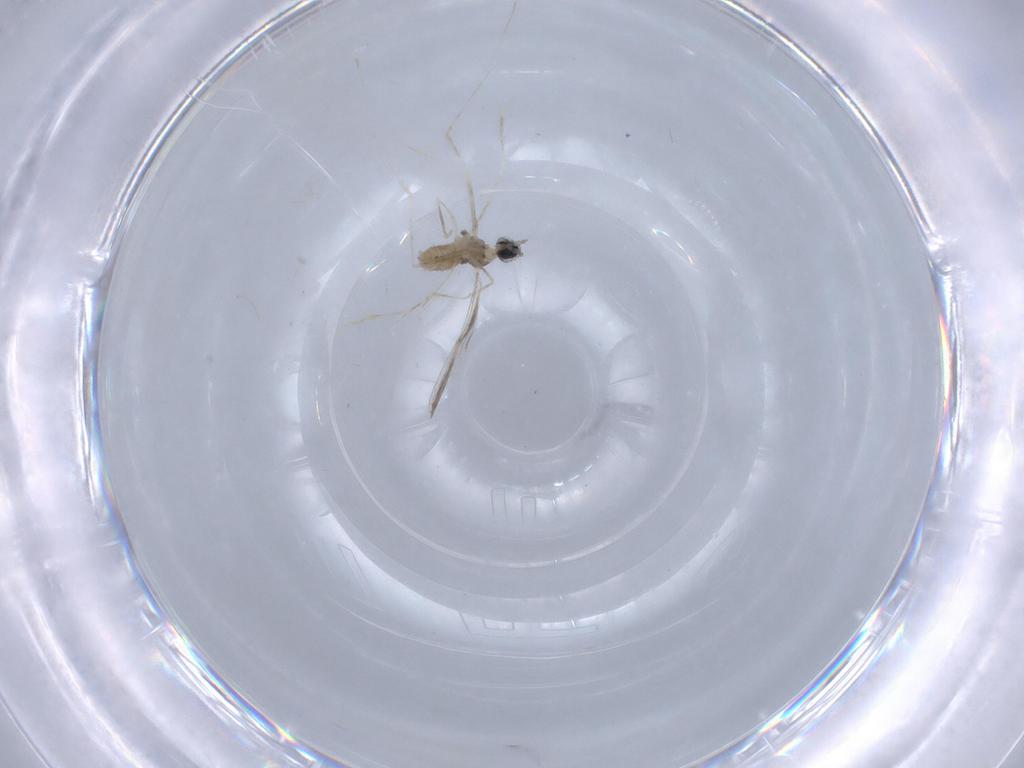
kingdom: Animalia
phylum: Arthropoda
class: Insecta
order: Diptera
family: Cecidomyiidae
